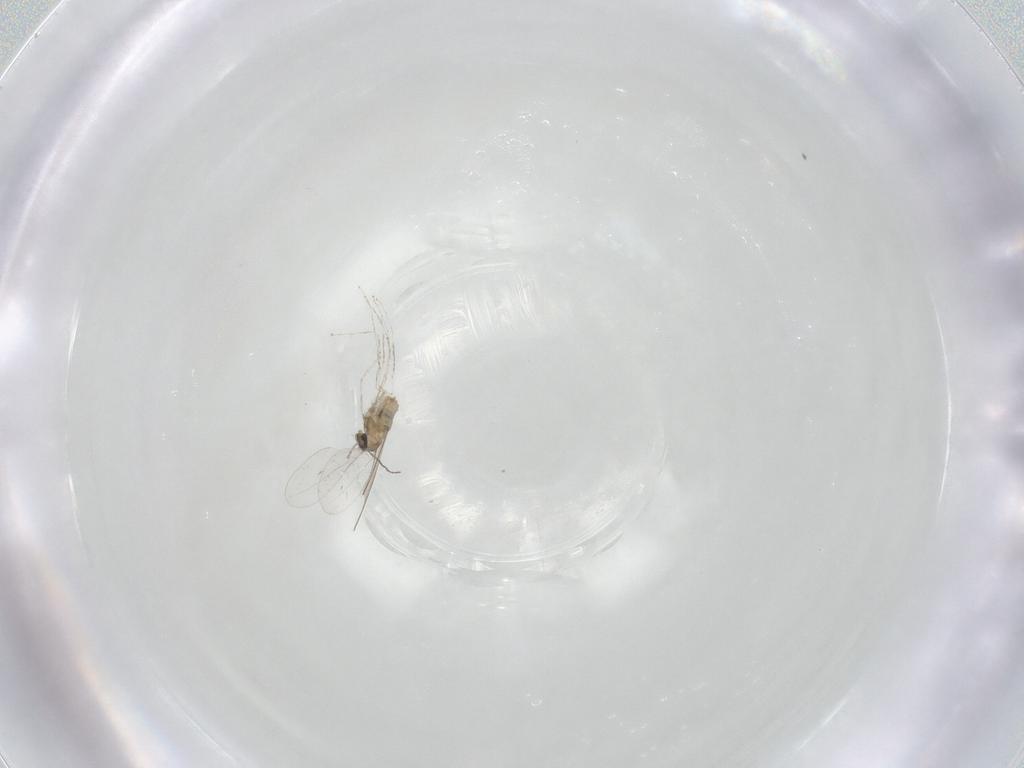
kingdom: Animalia
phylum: Arthropoda
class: Insecta
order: Diptera
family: Cecidomyiidae
